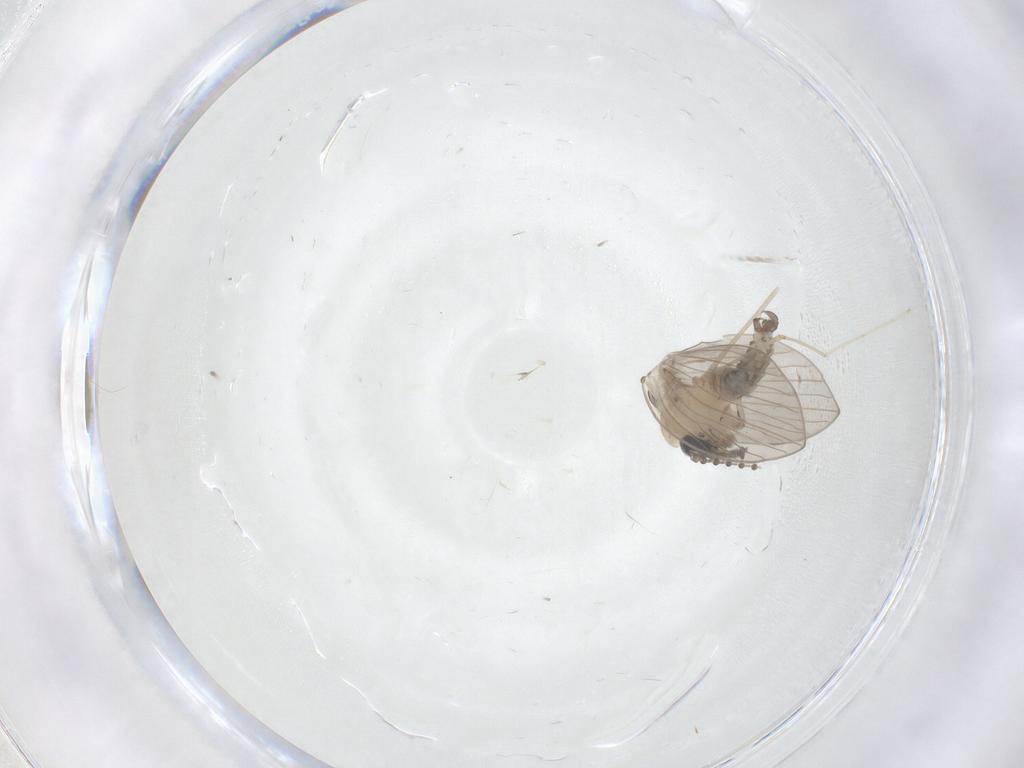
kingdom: Animalia
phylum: Arthropoda
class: Insecta
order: Diptera
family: Psychodidae
